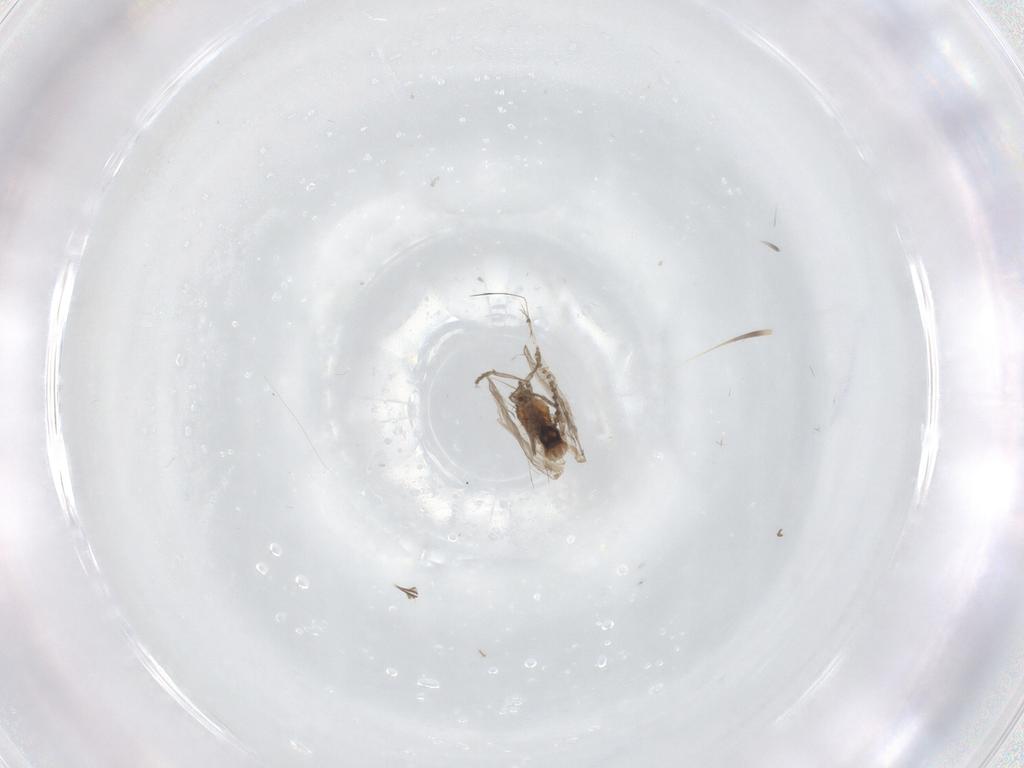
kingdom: Animalia
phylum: Arthropoda
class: Insecta
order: Diptera
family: Psychodidae
